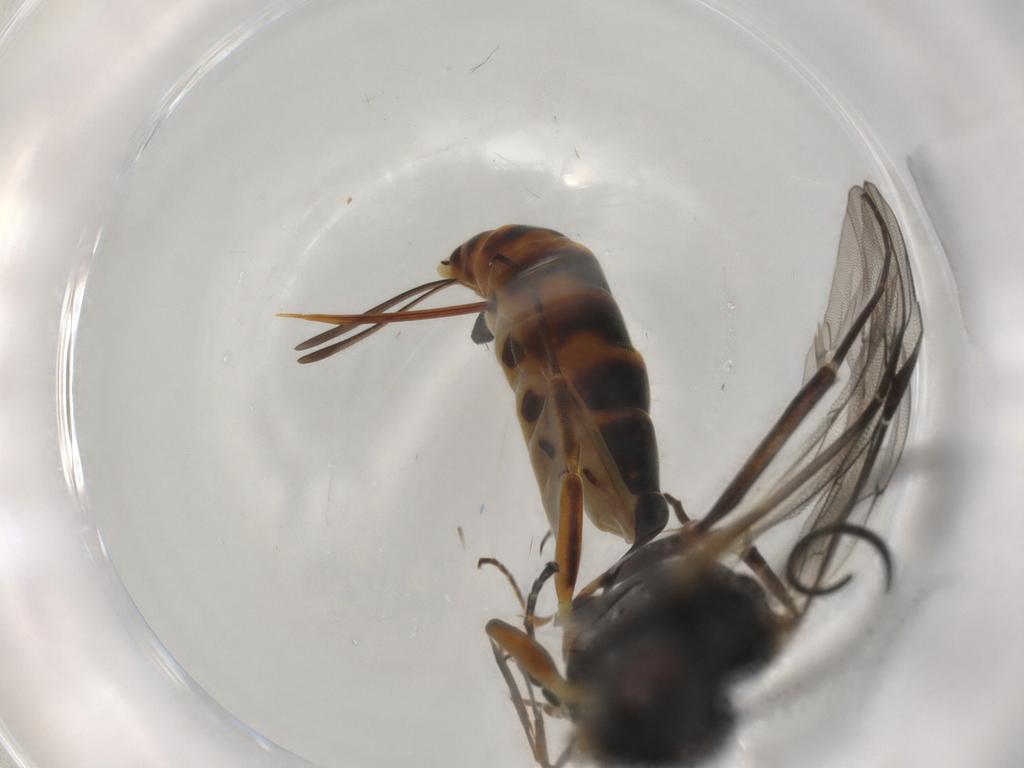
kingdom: Animalia
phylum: Arthropoda
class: Insecta
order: Hymenoptera
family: Ichneumonidae
